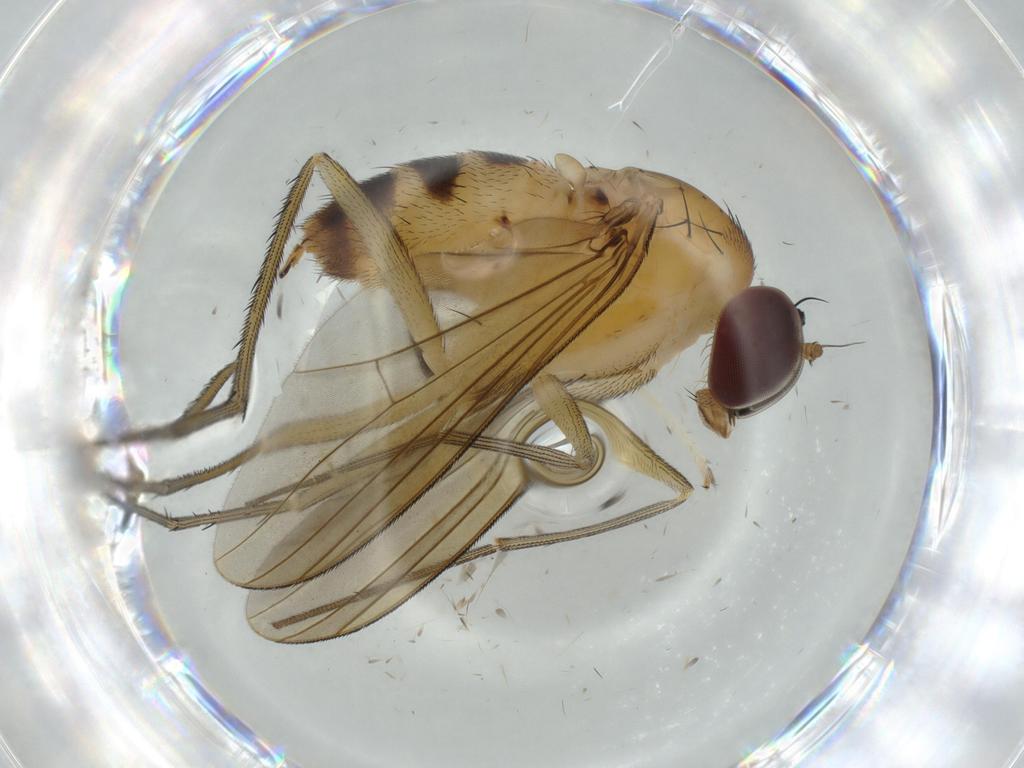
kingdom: Animalia
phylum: Arthropoda
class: Insecta
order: Diptera
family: Dolichopodidae
